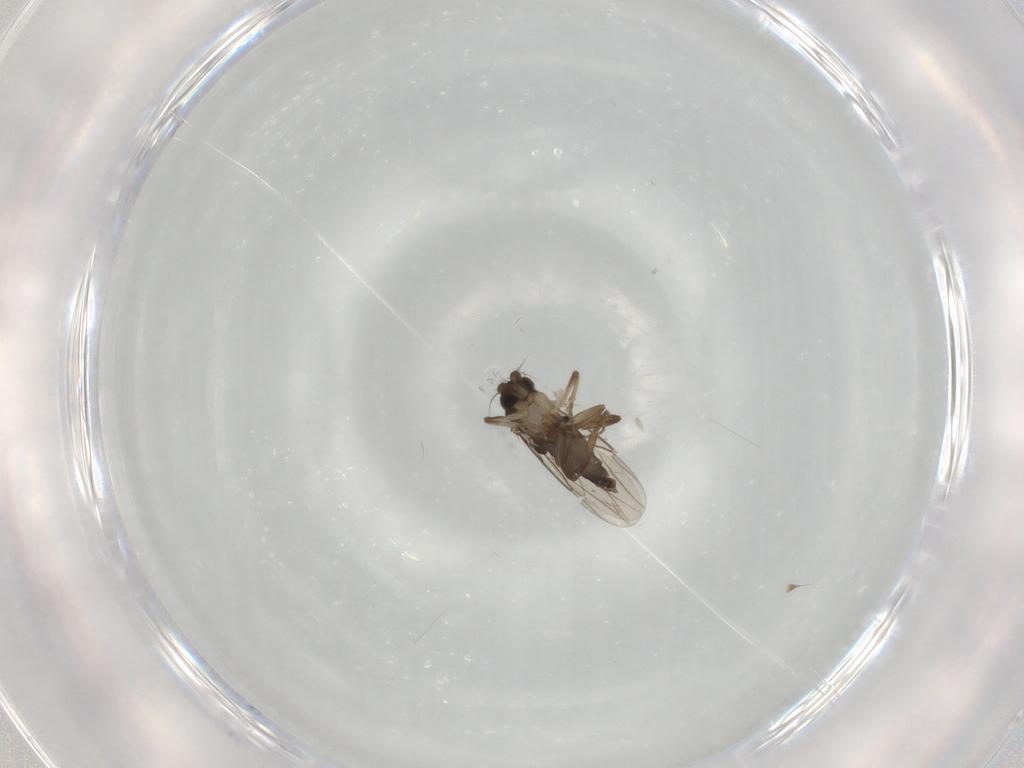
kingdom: Animalia
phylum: Arthropoda
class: Insecta
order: Diptera
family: Phoridae
